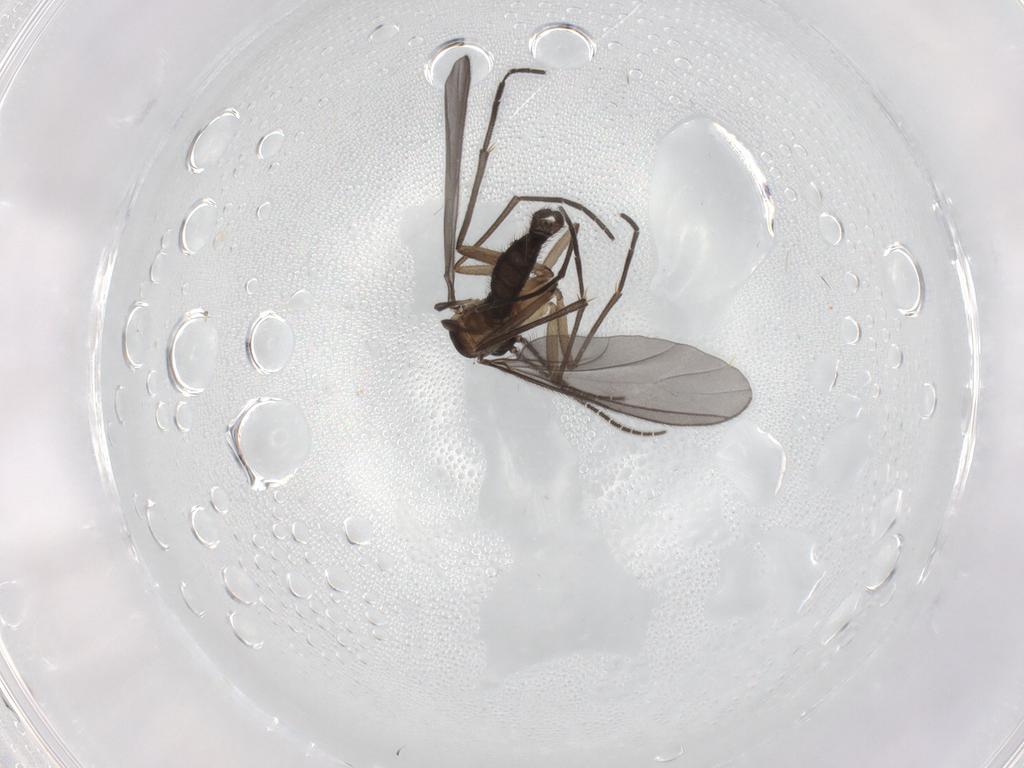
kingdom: Animalia
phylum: Arthropoda
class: Insecta
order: Diptera
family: Sciaridae
